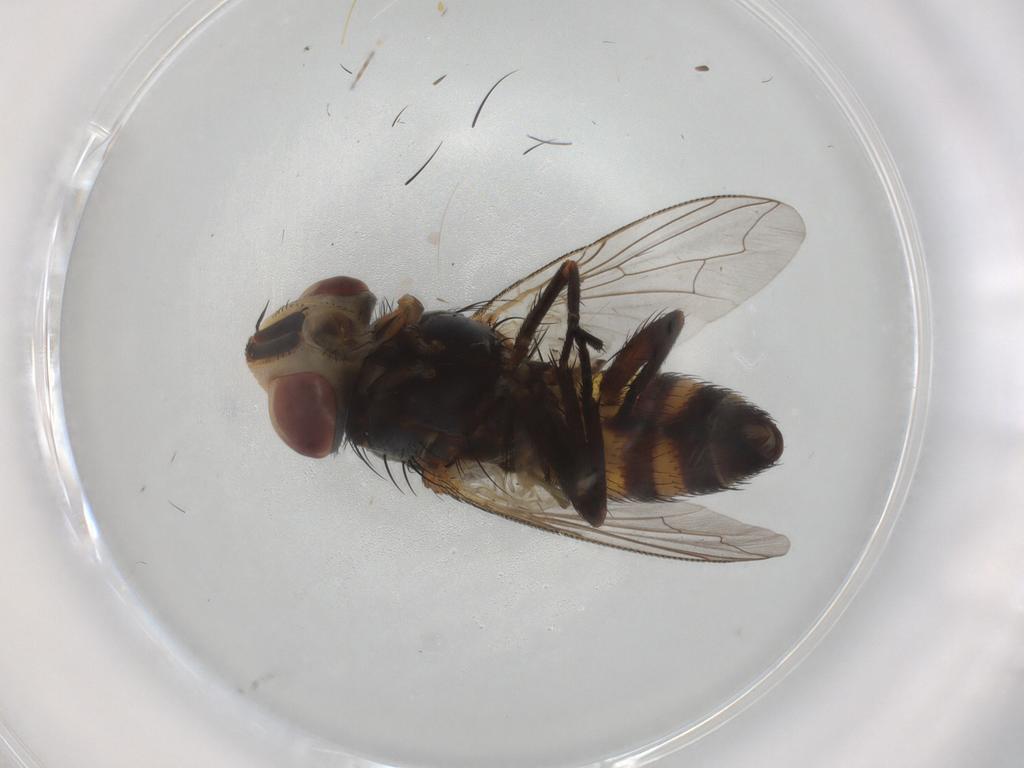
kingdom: Animalia
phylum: Arthropoda
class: Insecta
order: Diptera
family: Sarcophagidae
